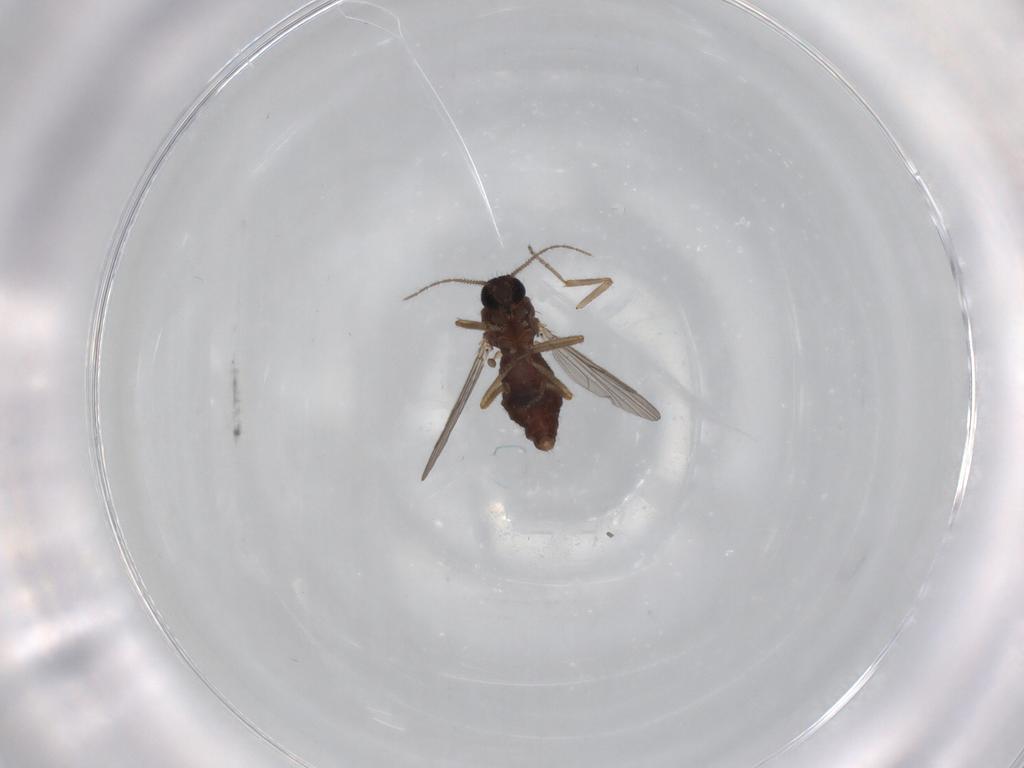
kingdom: Animalia
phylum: Arthropoda
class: Insecta
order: Diptera
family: Ceratopogonidae
